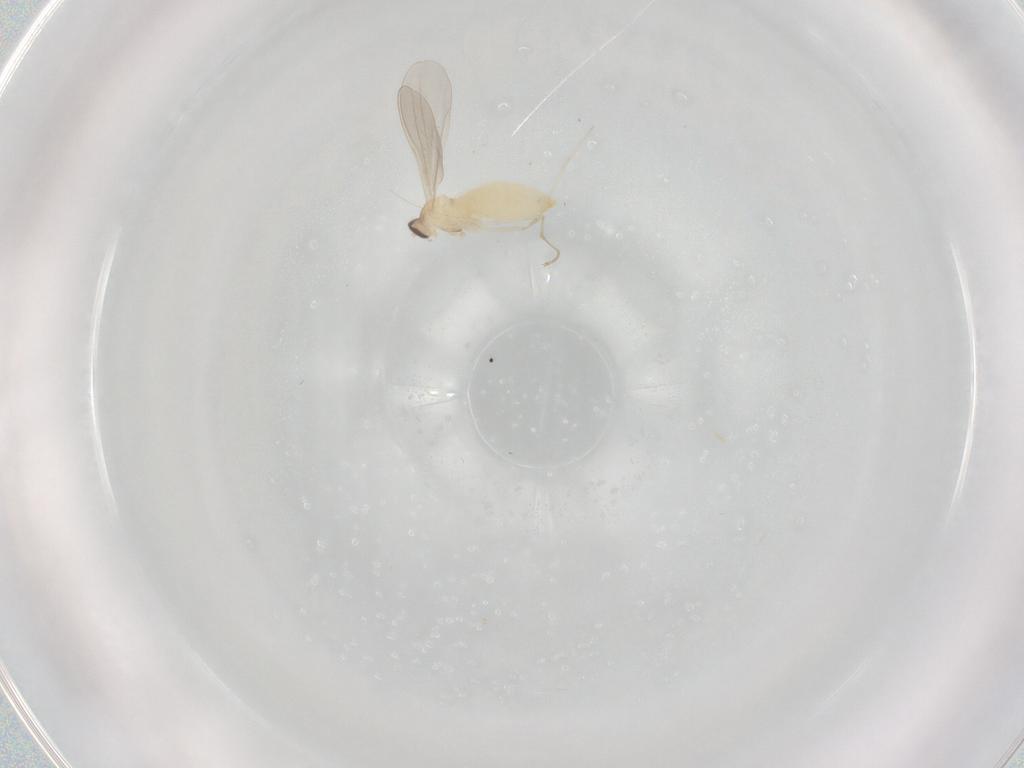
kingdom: Animalia
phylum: Arthropoda
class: Insecta
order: Diptera
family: Cecidomyiidae
